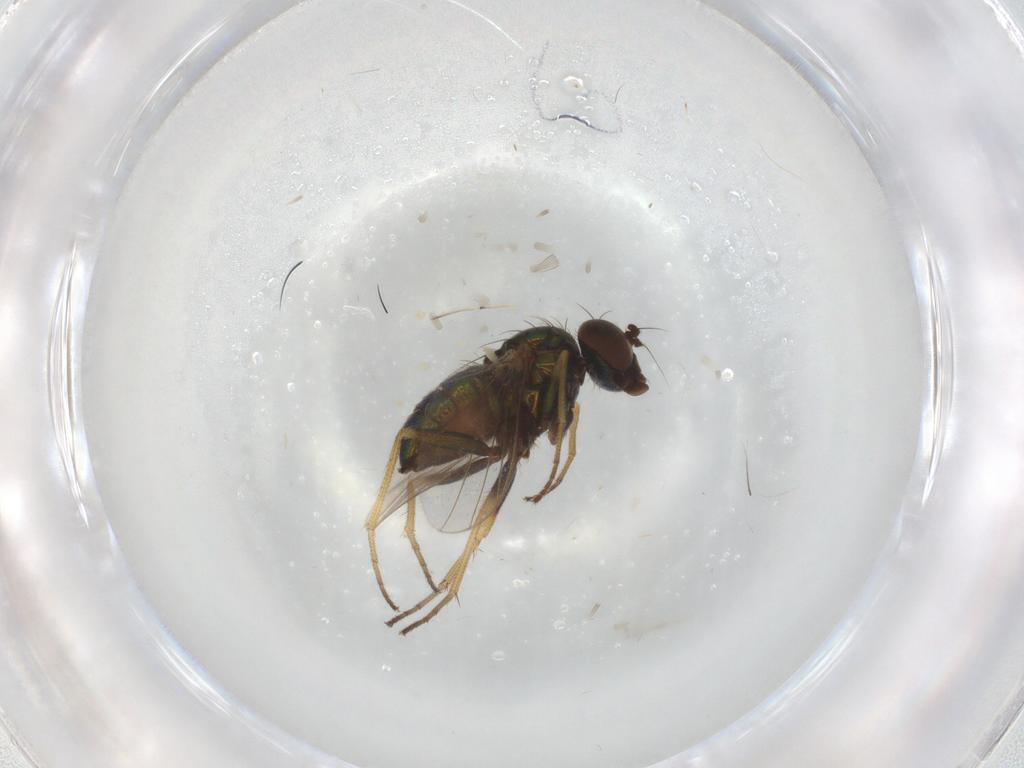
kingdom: Animalia
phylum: Arthropoda
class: Insecta
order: Diptera
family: Dolichopodidae
